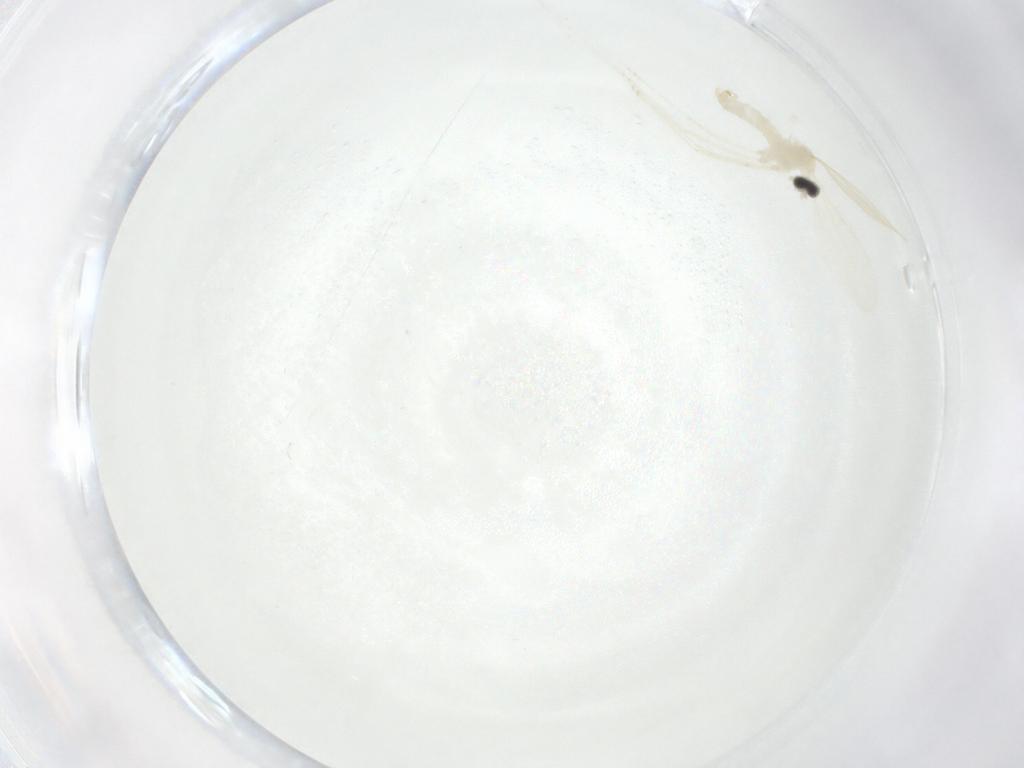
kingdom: Animalia
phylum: Arthropoda
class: Insecta
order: Diptera
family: Cecidomyiidae
